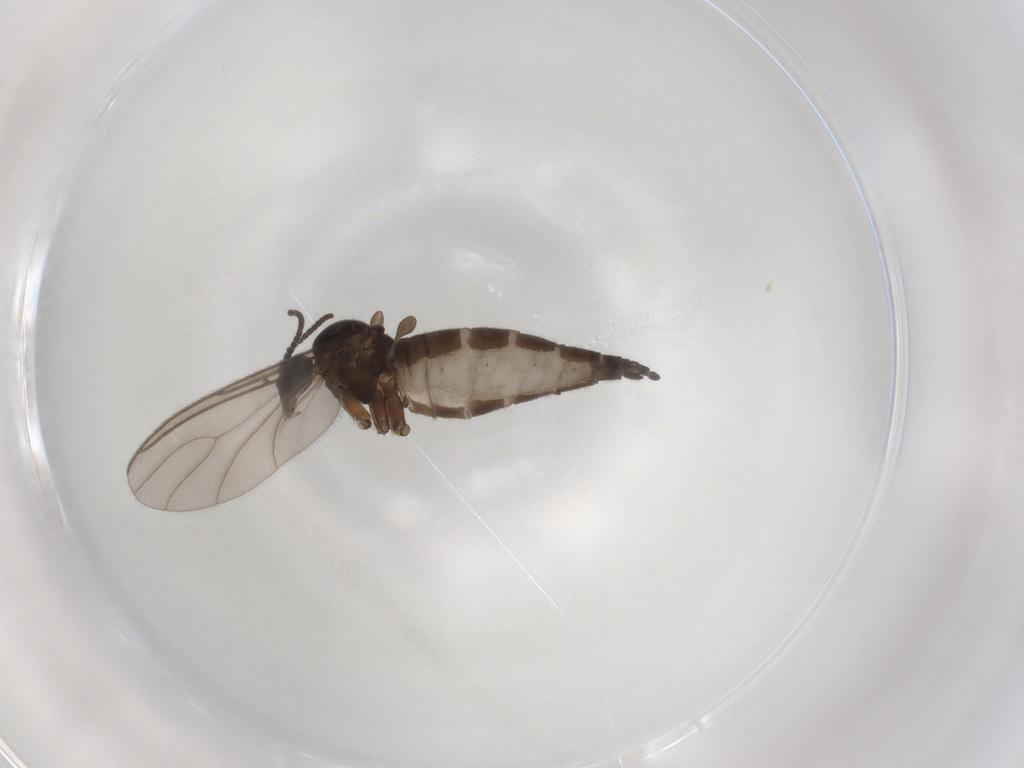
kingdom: Animalia
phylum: Arthropoda
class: Insecta
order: Diptera
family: Sciaridae
